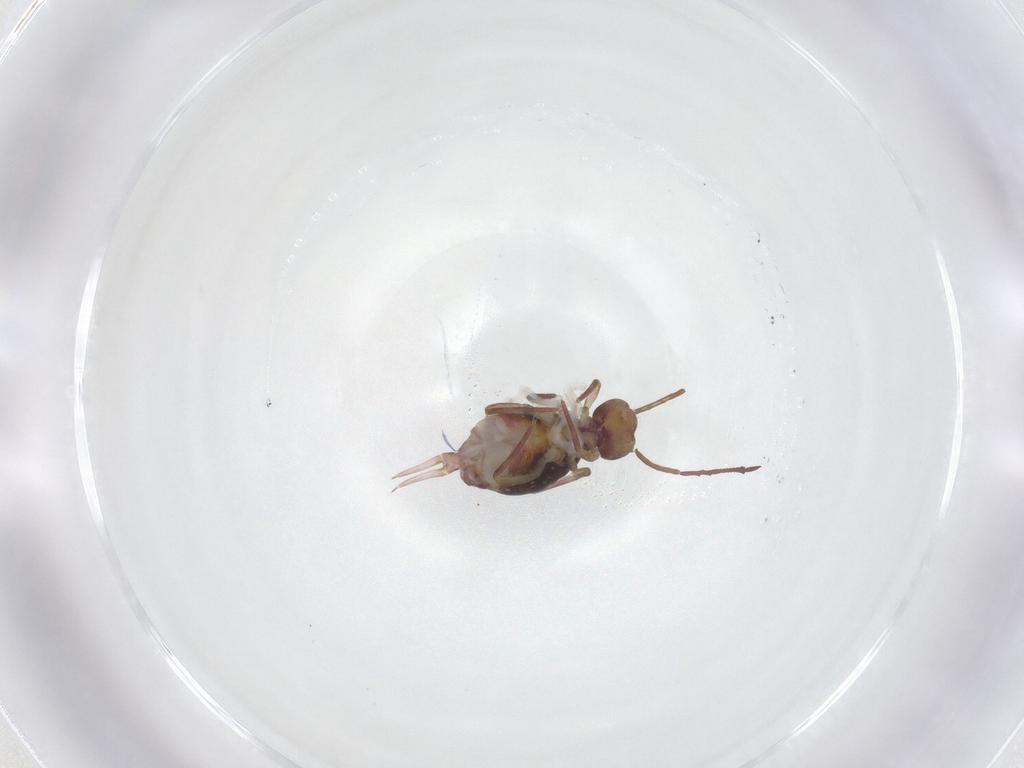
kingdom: Animalia
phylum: Arthropoda
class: Collembola
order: Symphypleona
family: Dicyrtomidae
